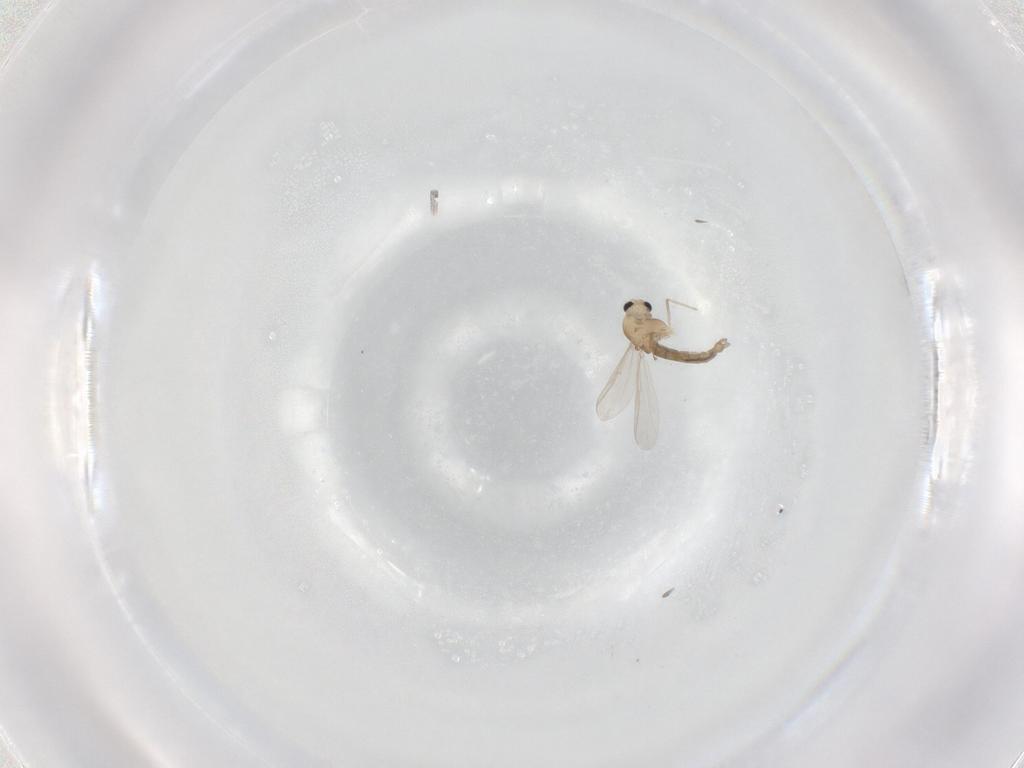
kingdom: Animalia
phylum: Arthropoda
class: Insecta
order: Diptera
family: Chironomidae
